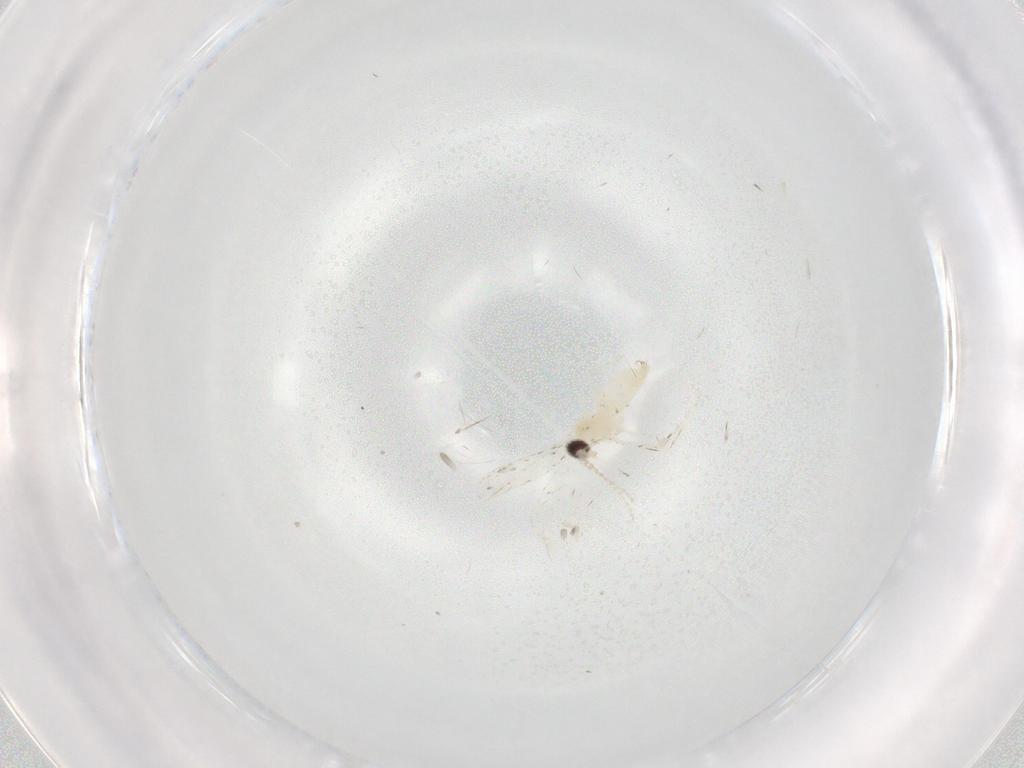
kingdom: Animalia
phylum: Arthropoda
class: Insecta
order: Diptera
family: Cecidomyiidae
